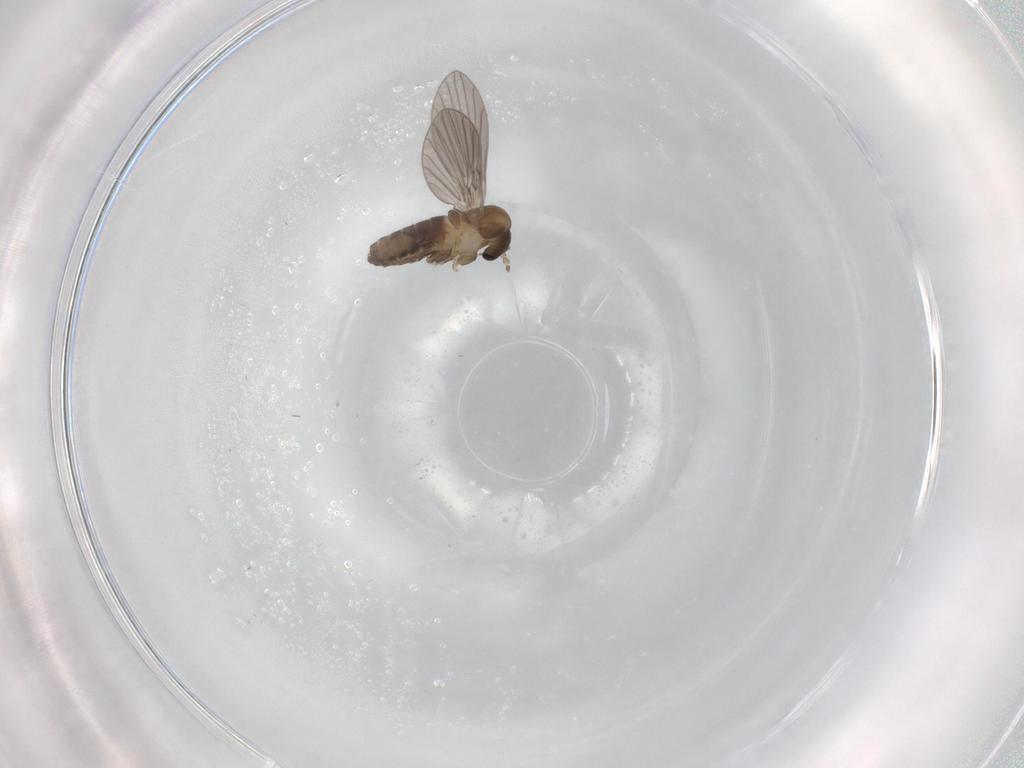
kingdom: Animalia
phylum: Arthropoda
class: Insecta
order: Diptera
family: Psychodidae
